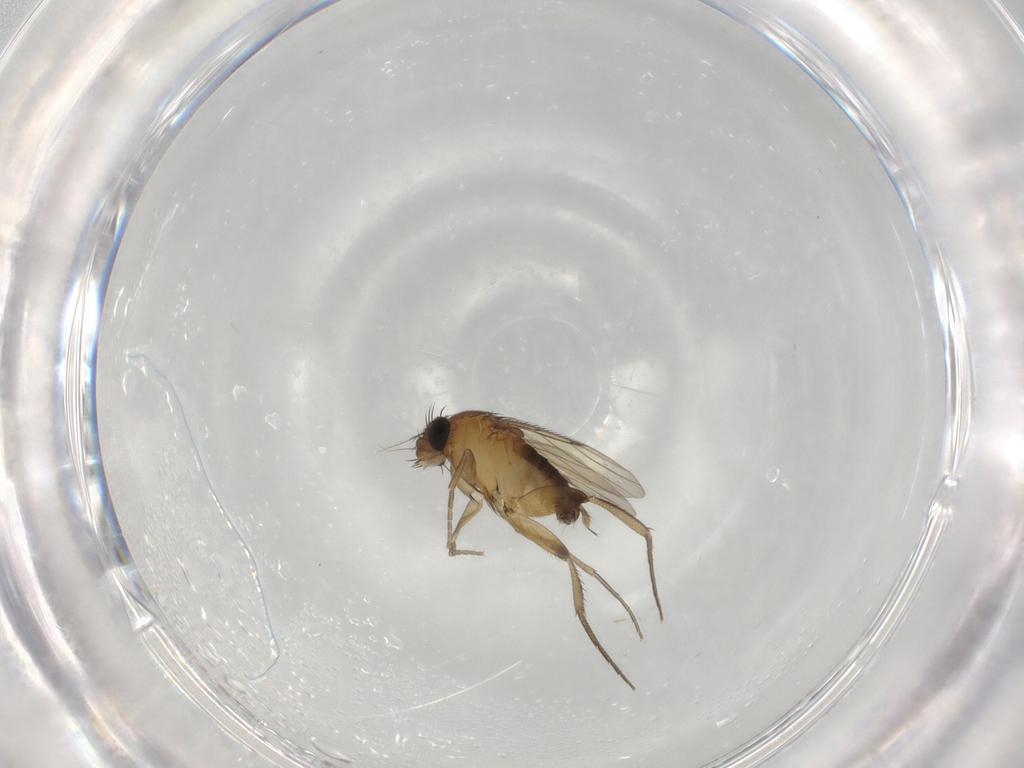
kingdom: Animalia
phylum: Arthropoda
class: Insecta
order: Diptera
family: Phoridae
